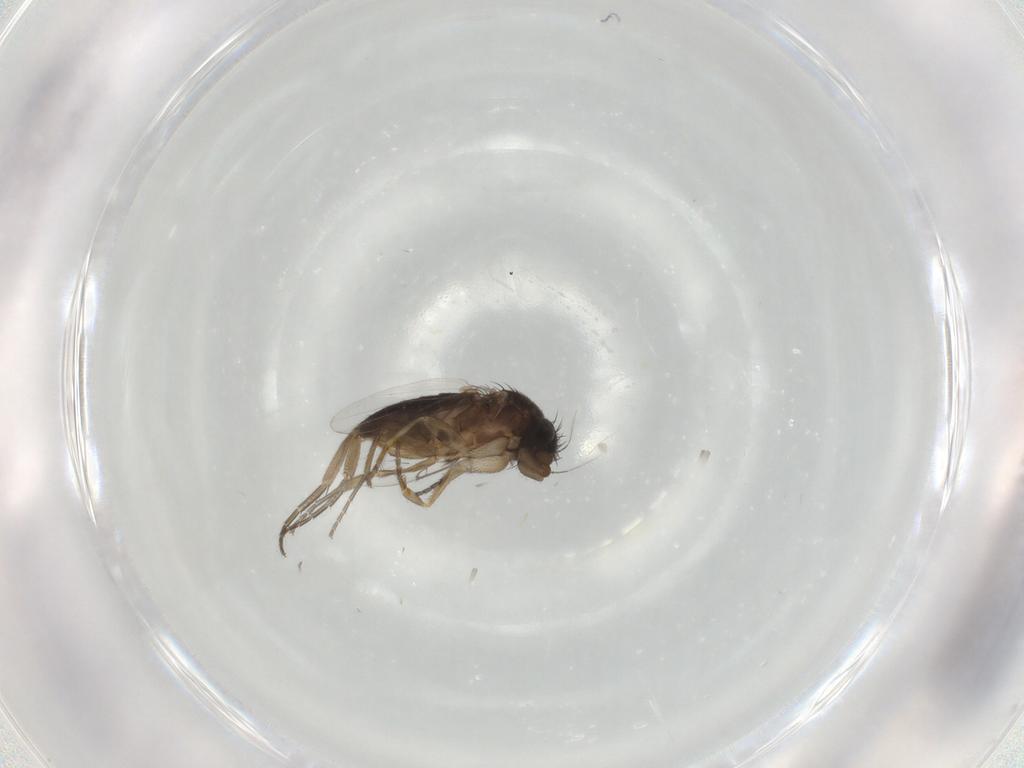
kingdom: Animalia
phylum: Arthropoda
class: Insecta
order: Diptera
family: Phoridae
